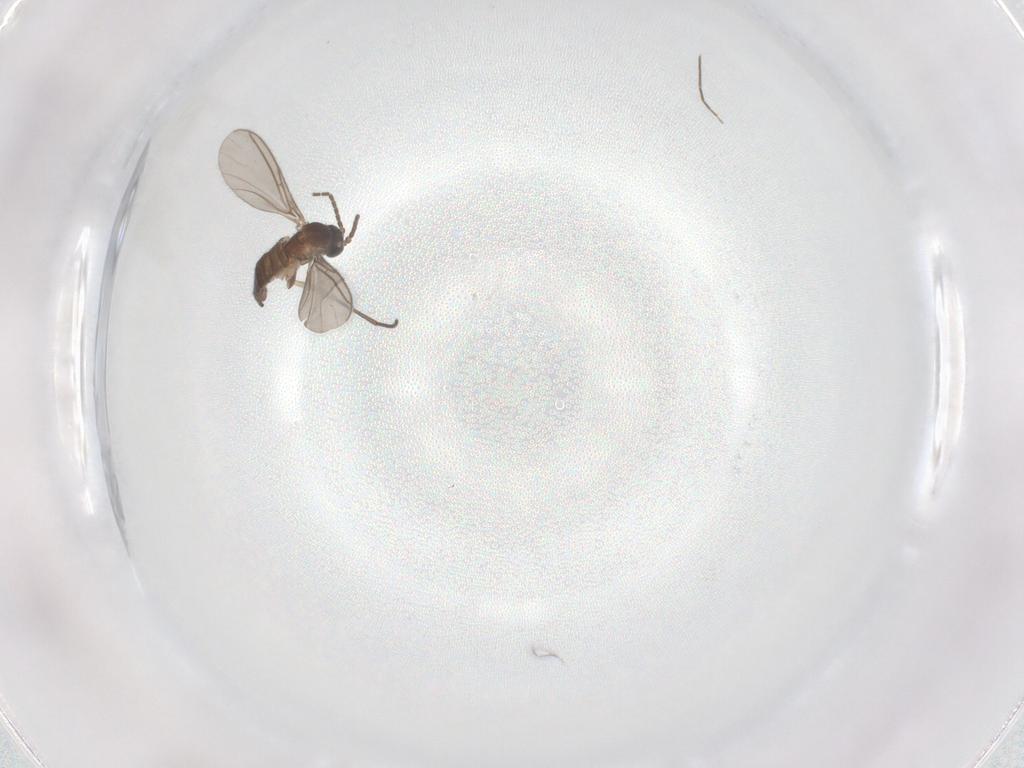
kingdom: Animalia
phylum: Arthropoda
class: Insecta
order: Diptera
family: Sciaridae
